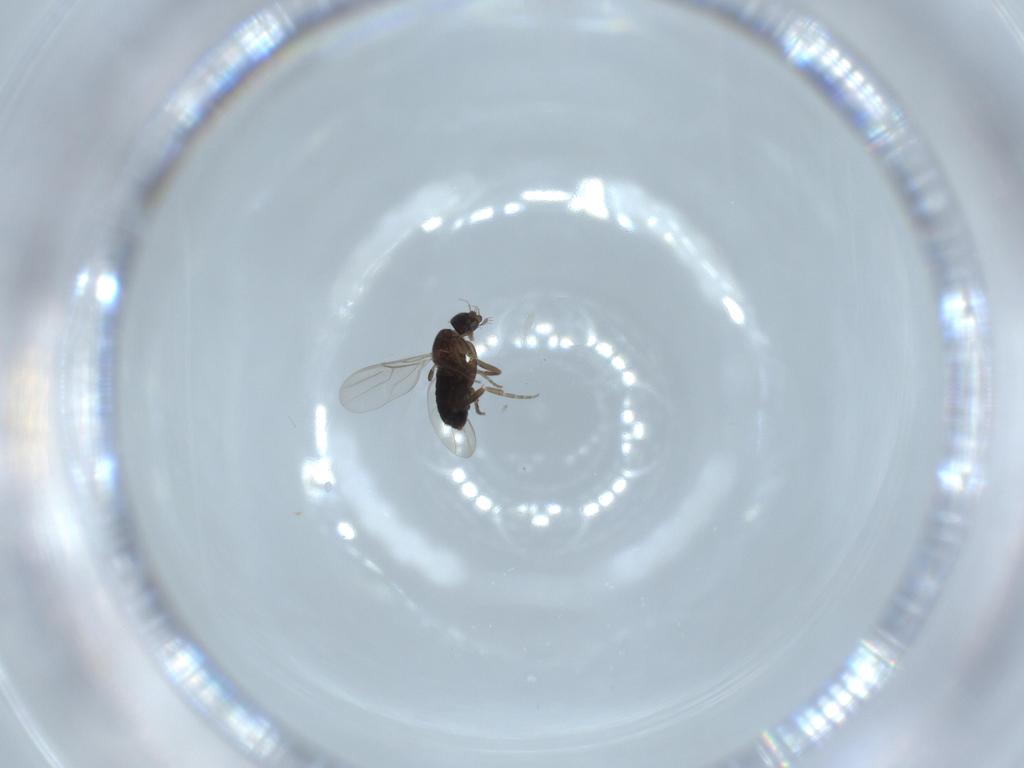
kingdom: Animalia
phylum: Arthropoda
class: Insecta
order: Diptera
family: Phoridae
